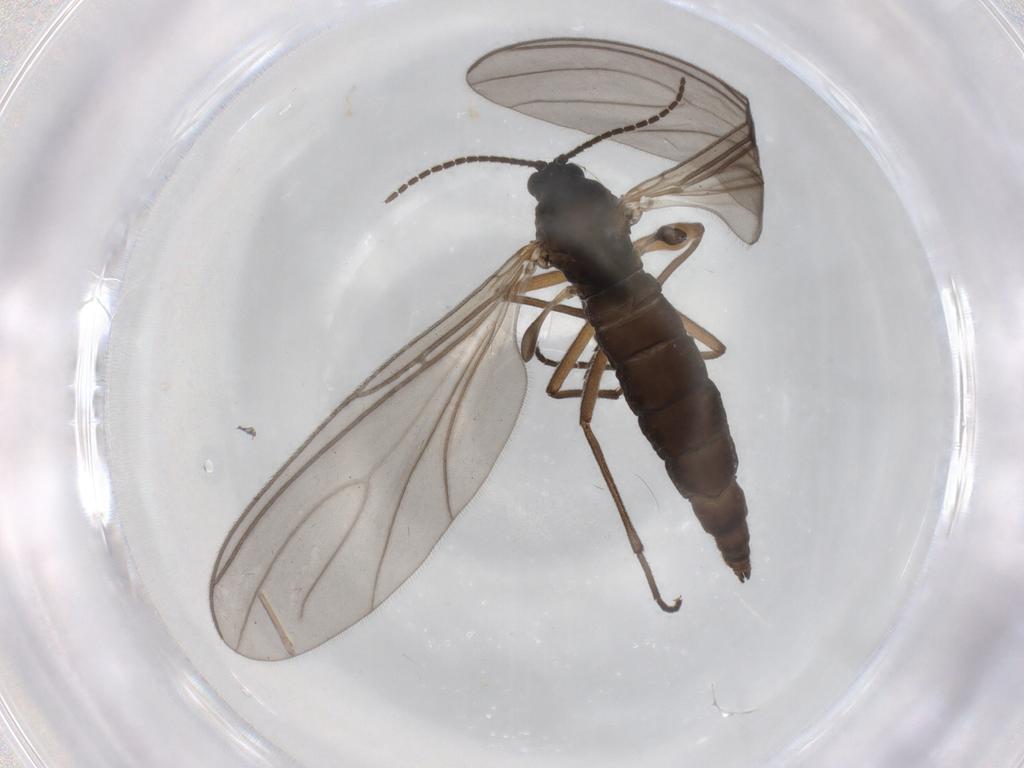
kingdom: Animalia
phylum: Arthropoda
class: Insecta
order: Diptera
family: Sciaridae
